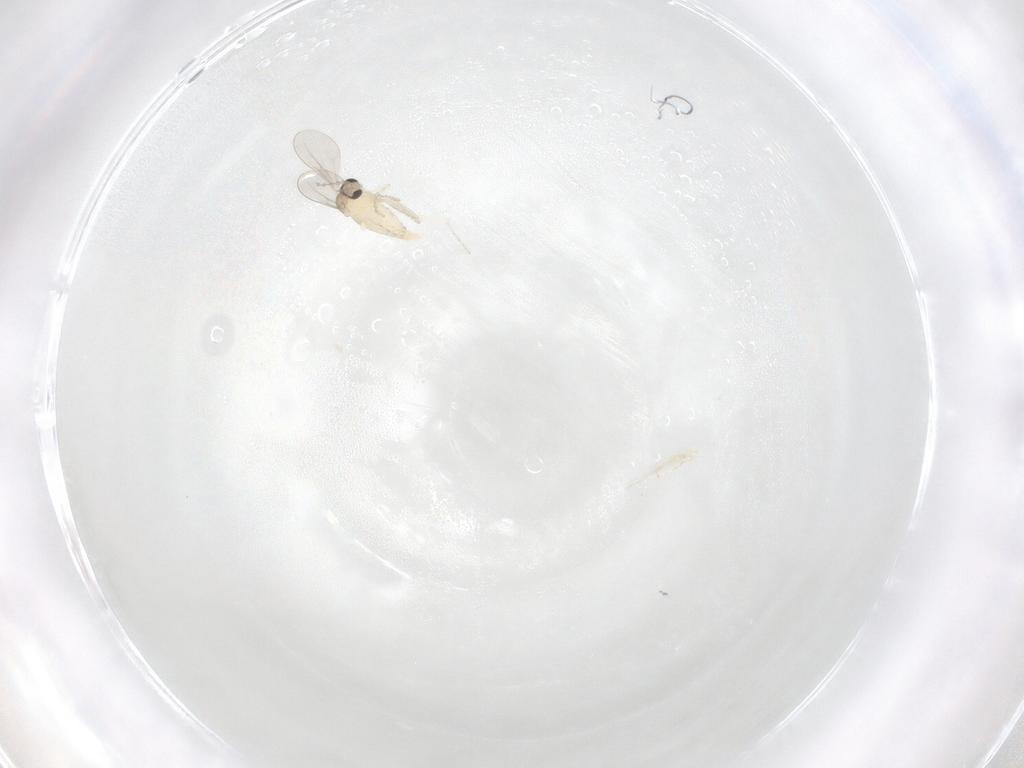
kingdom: Animalia
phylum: Arthropoda
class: Insecta
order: Diptera
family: Cecidomyiidae
